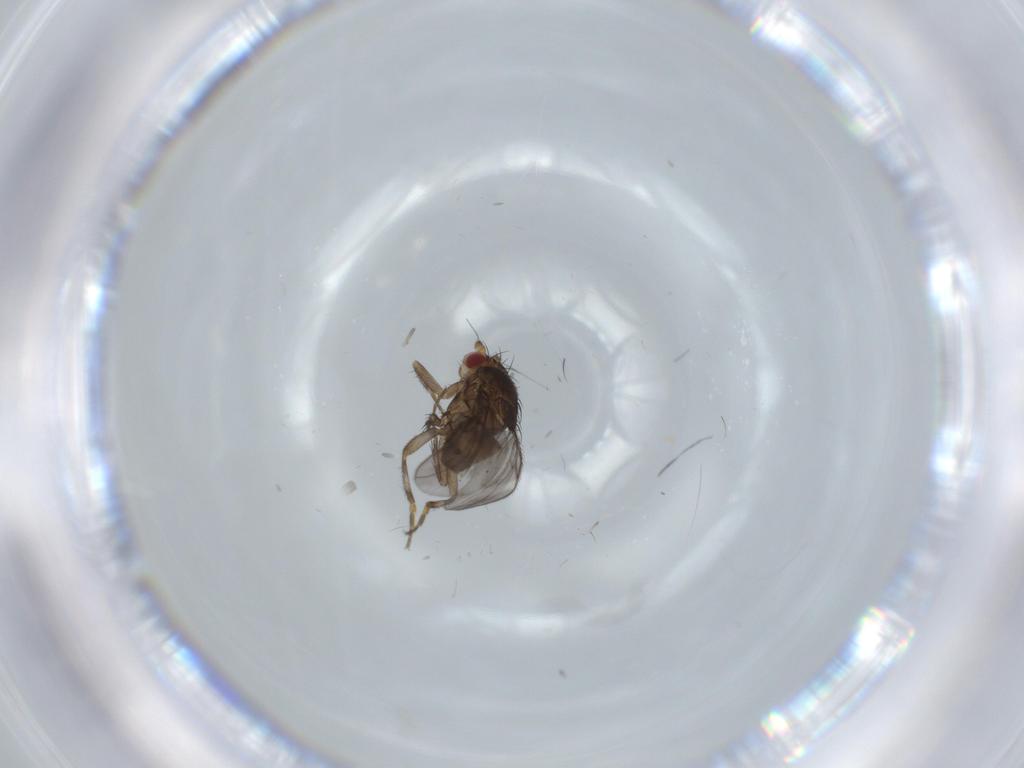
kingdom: Animalia
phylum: Arthropoda
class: Insecta
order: Diptera
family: Sphaeroceridae
